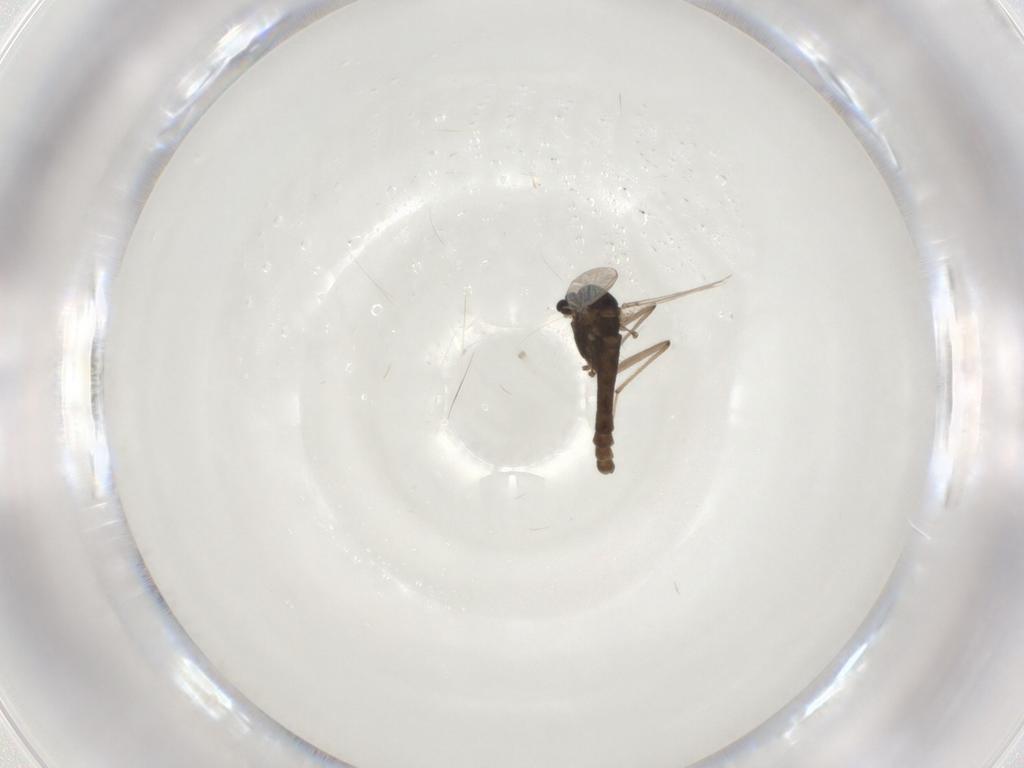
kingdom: Animalia
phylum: Arthropoda
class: Insecta
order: Diptera
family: Chironomidae
